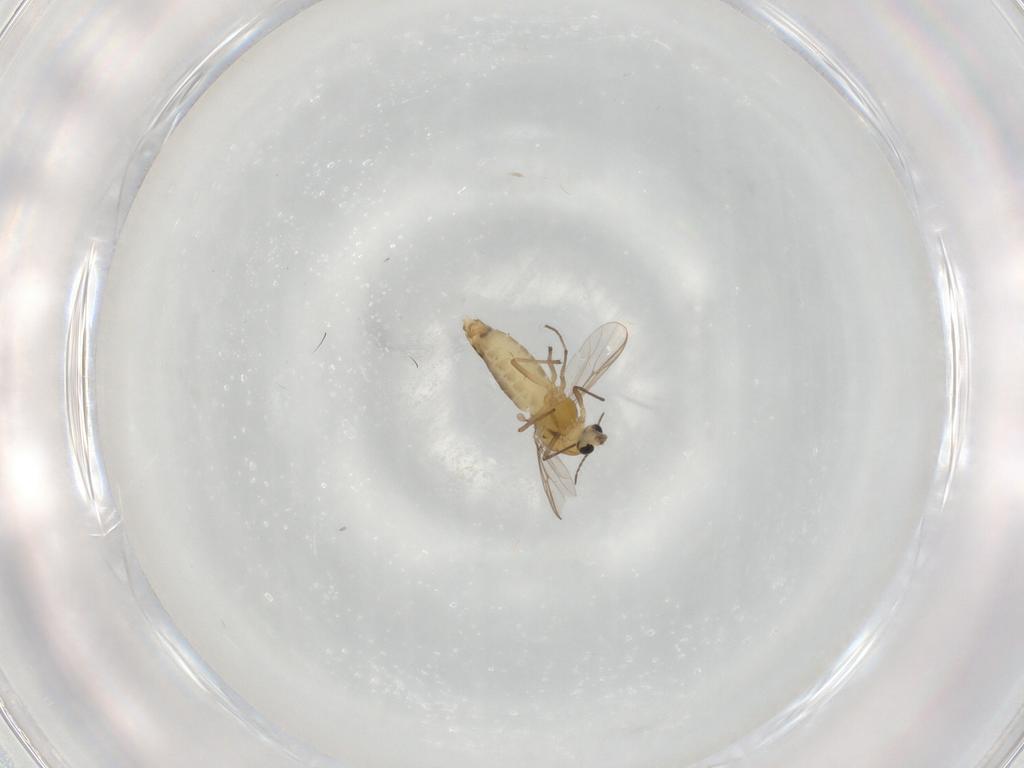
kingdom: Animalia
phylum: Arthropoda
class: Insecta
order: Diptera
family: Chironomidae
